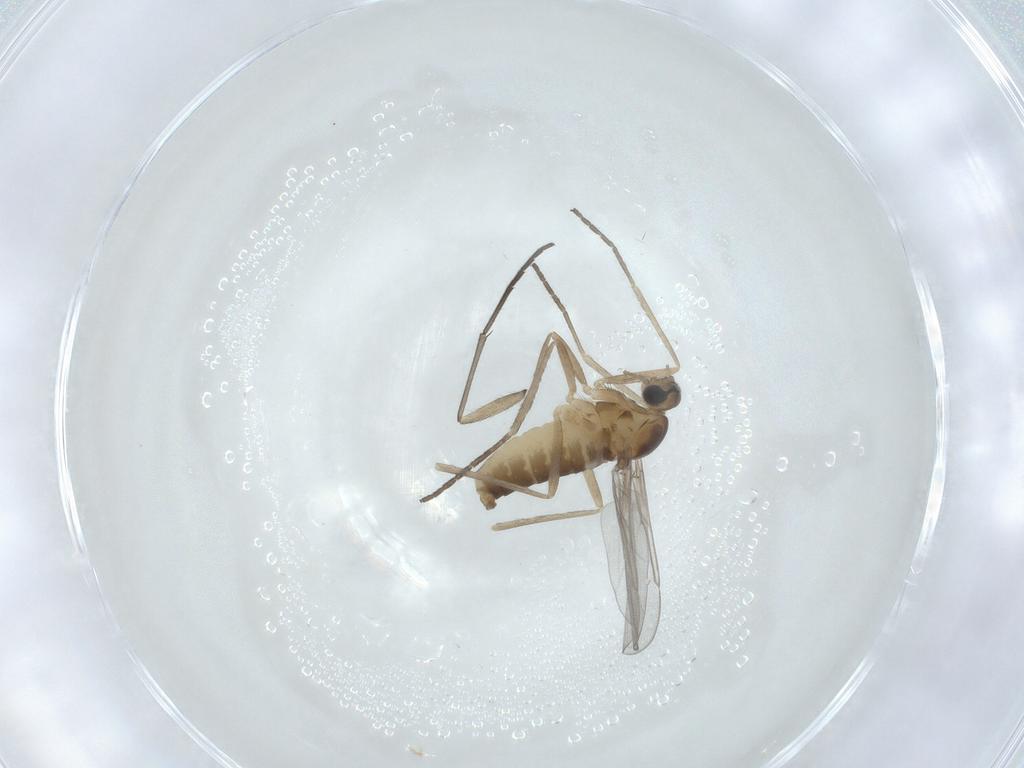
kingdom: Animalia
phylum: Arthropoda
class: Insecta
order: Diptera
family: Cecidomyiidae
